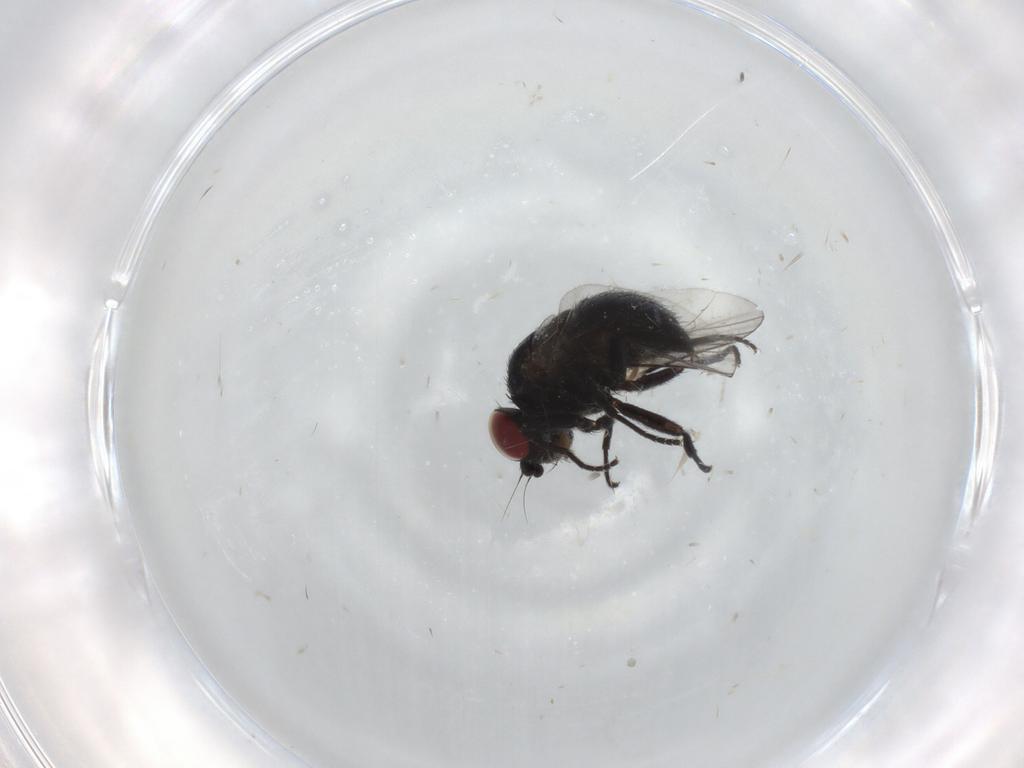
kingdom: Animalia
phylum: Arthropoda
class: Insecta
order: Diptera
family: Agromyzidae
